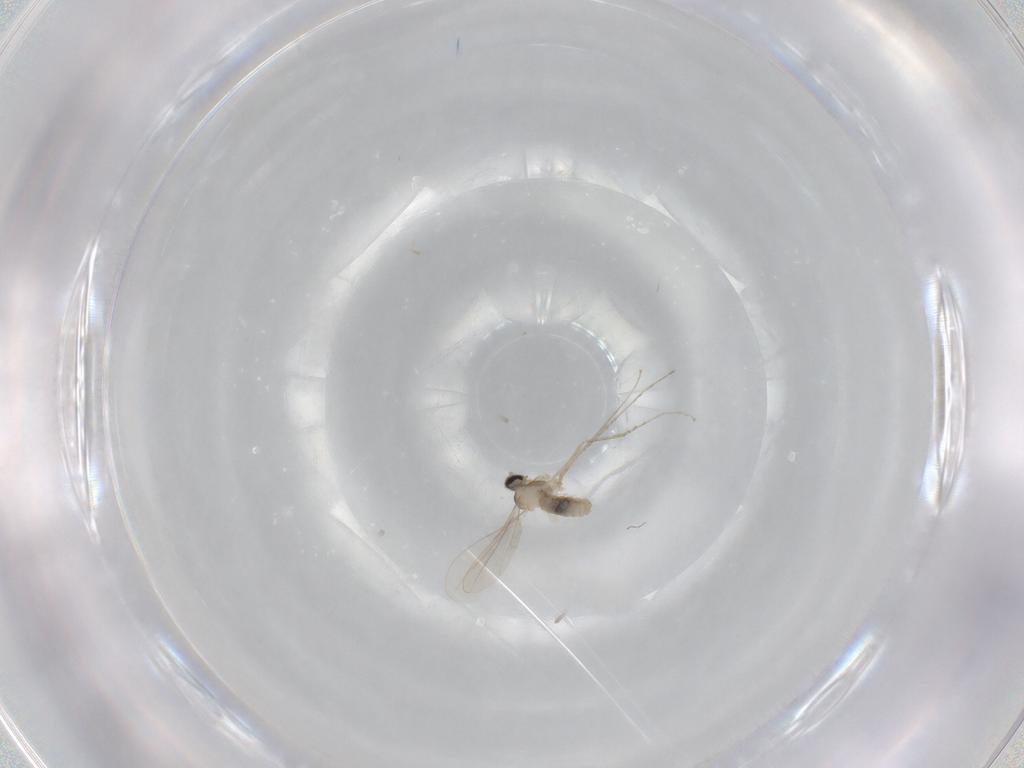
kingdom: Animalia
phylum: Arthropoda
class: Insecta
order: Diptera
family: Cecidomyiidae
